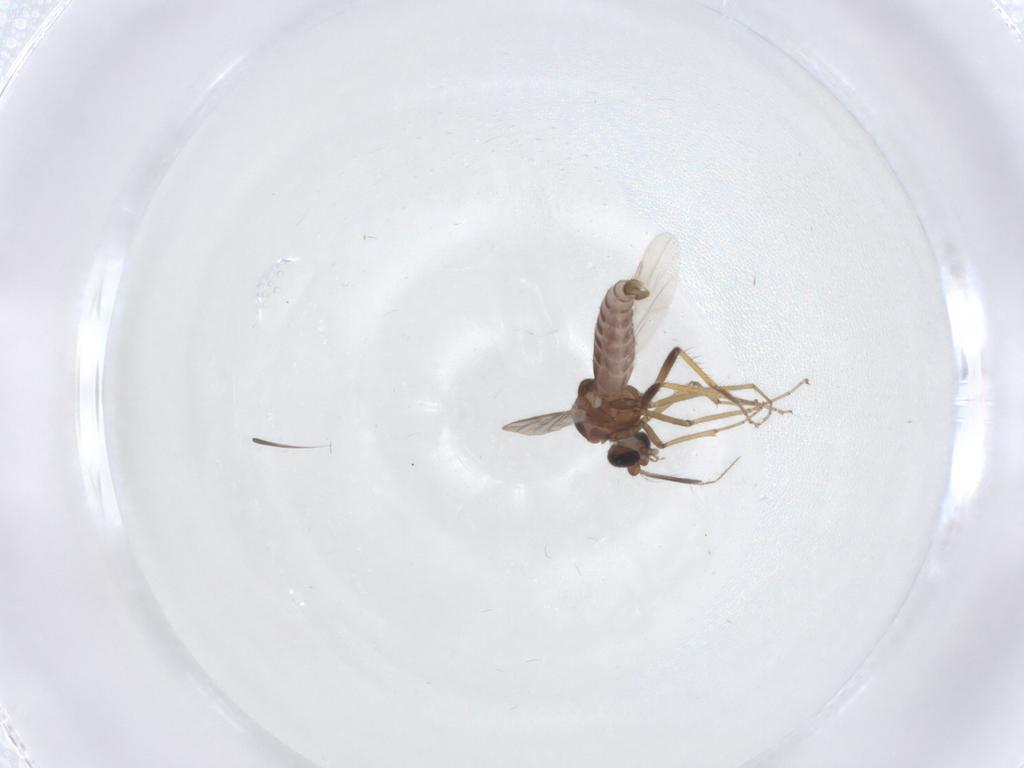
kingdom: Animalia
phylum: Arthropoda
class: Insecta
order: Diptera
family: Ceratopogonidae
